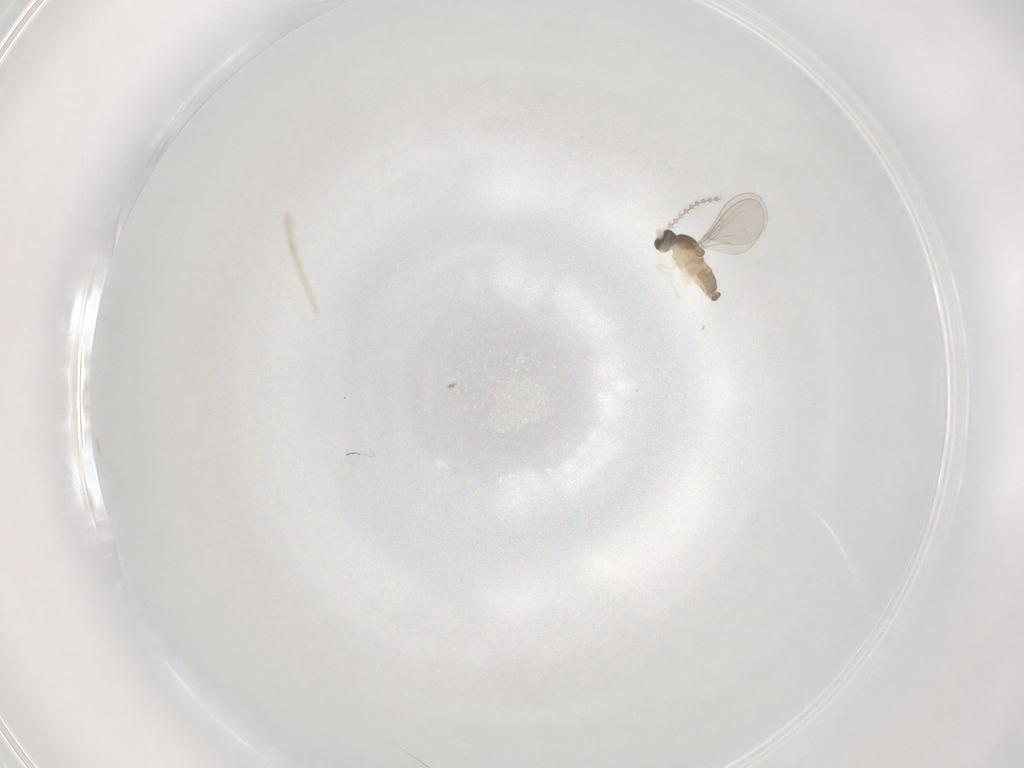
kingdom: Animalia
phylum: Arthropoda
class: Insecta
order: Diptera
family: Cecidomyiidae
